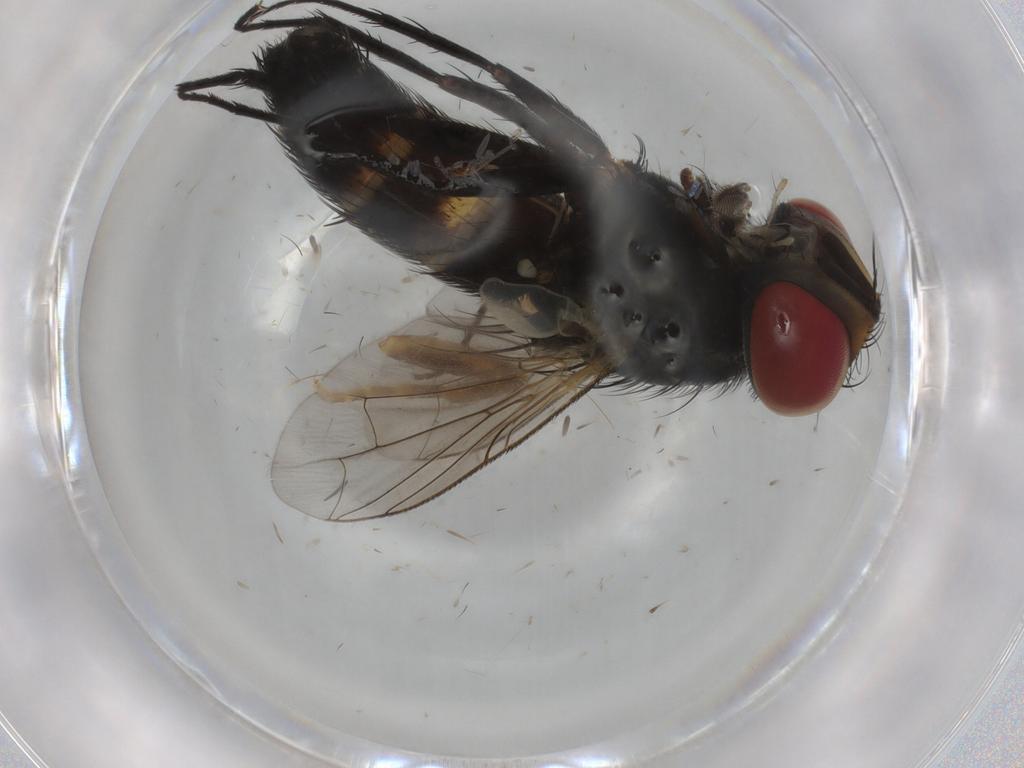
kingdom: Animalia
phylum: Arthropoda
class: Insecta
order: Diptera
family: Anthomyiidae
